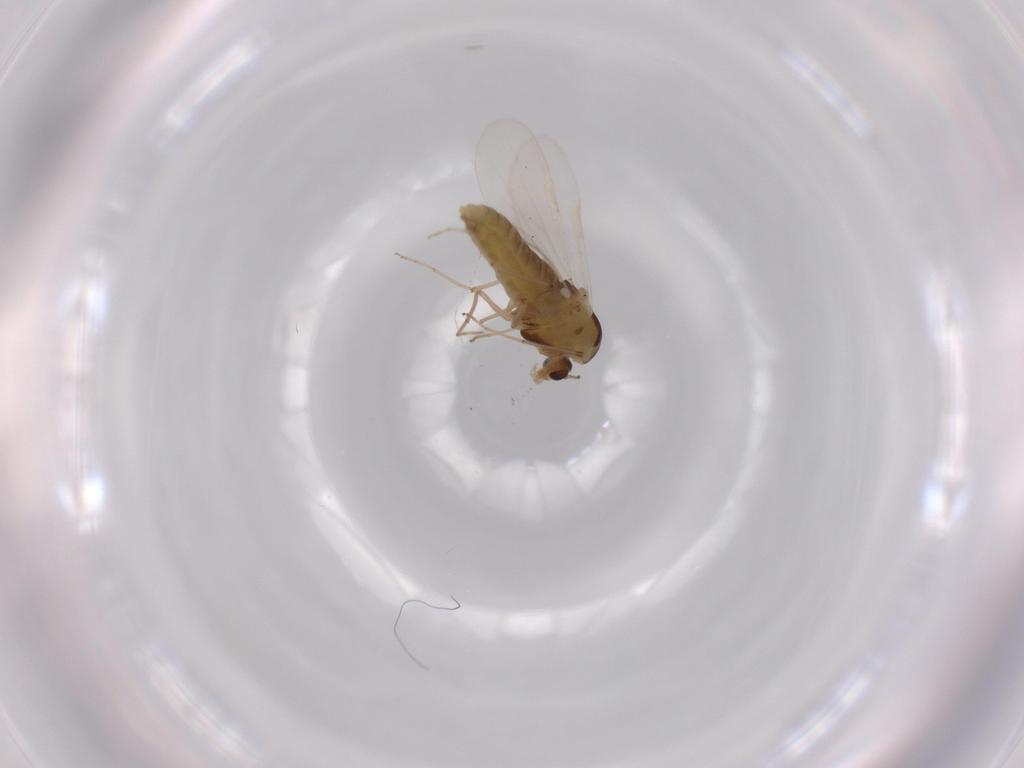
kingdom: Animalia
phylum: Arthropoda
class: Insecta
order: Diptera
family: Chironomidae
